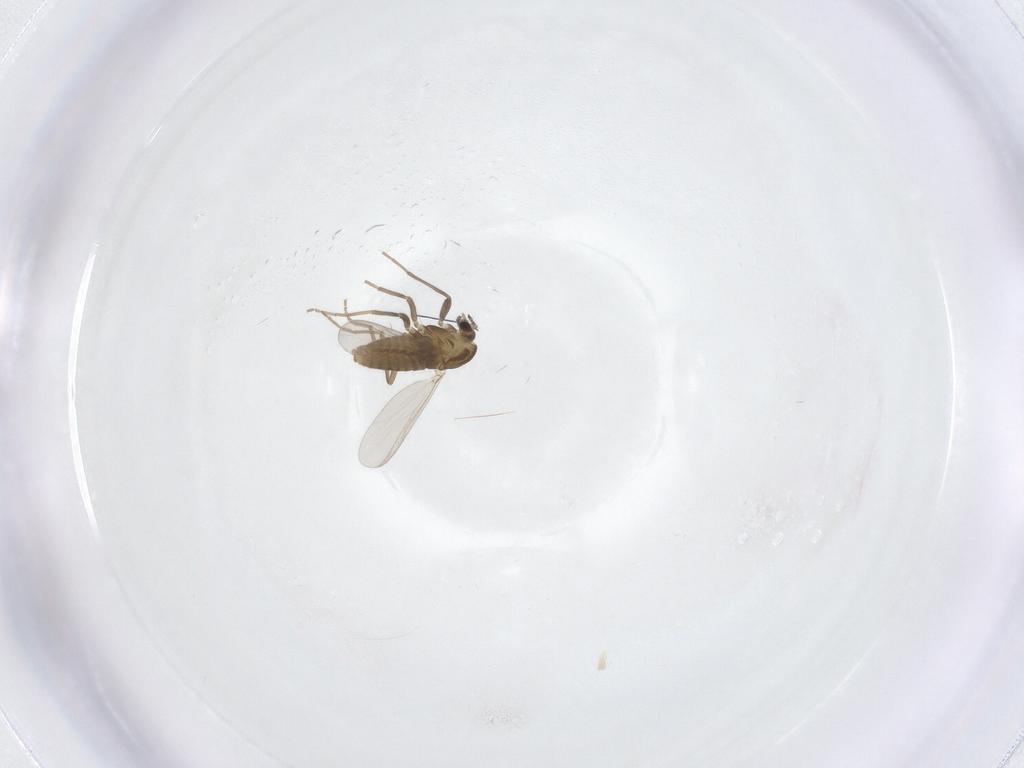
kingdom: Animalia
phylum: Arthropoda
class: Insecta
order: Diptera
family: Chironomidae
